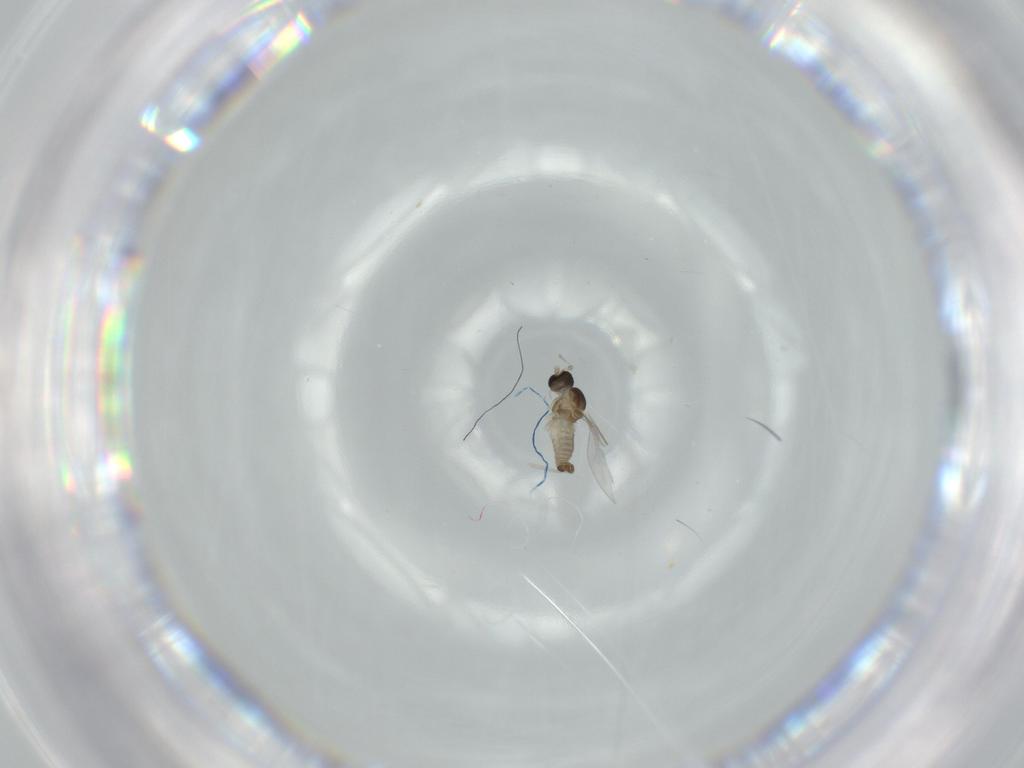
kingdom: Animalia
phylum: Arthropoda
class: Insecta
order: Diptera
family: Cecidomyiidae
